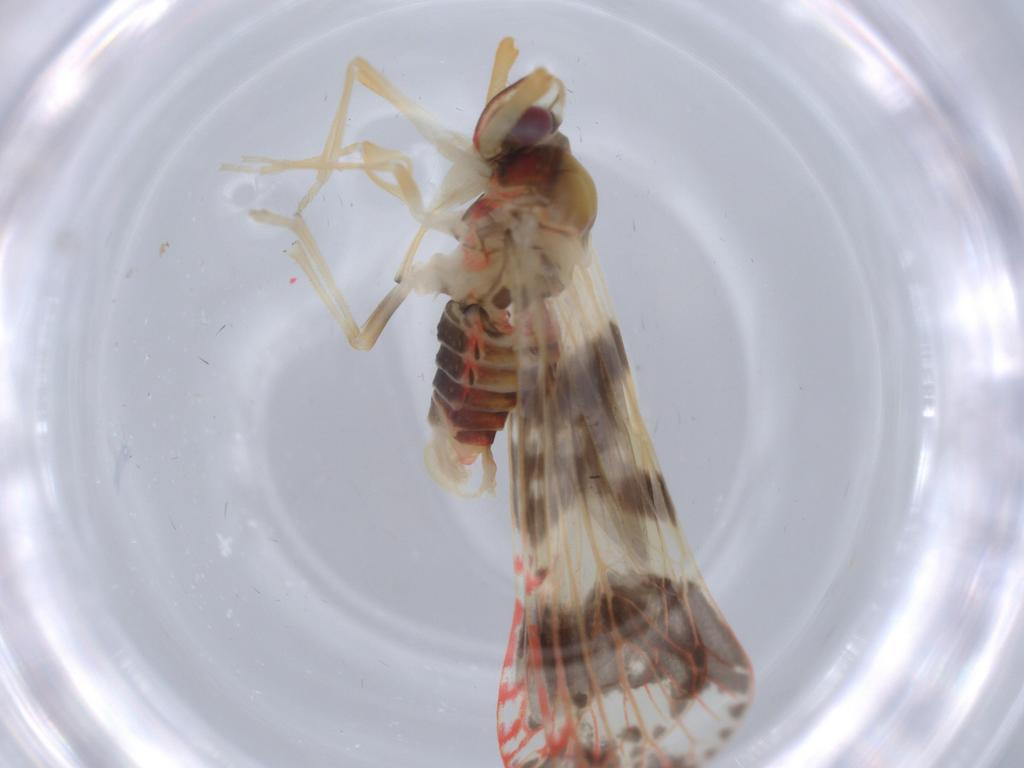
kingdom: Animalia
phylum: Arthropoda
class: Insecta
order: Hemiptera
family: Derbidae
